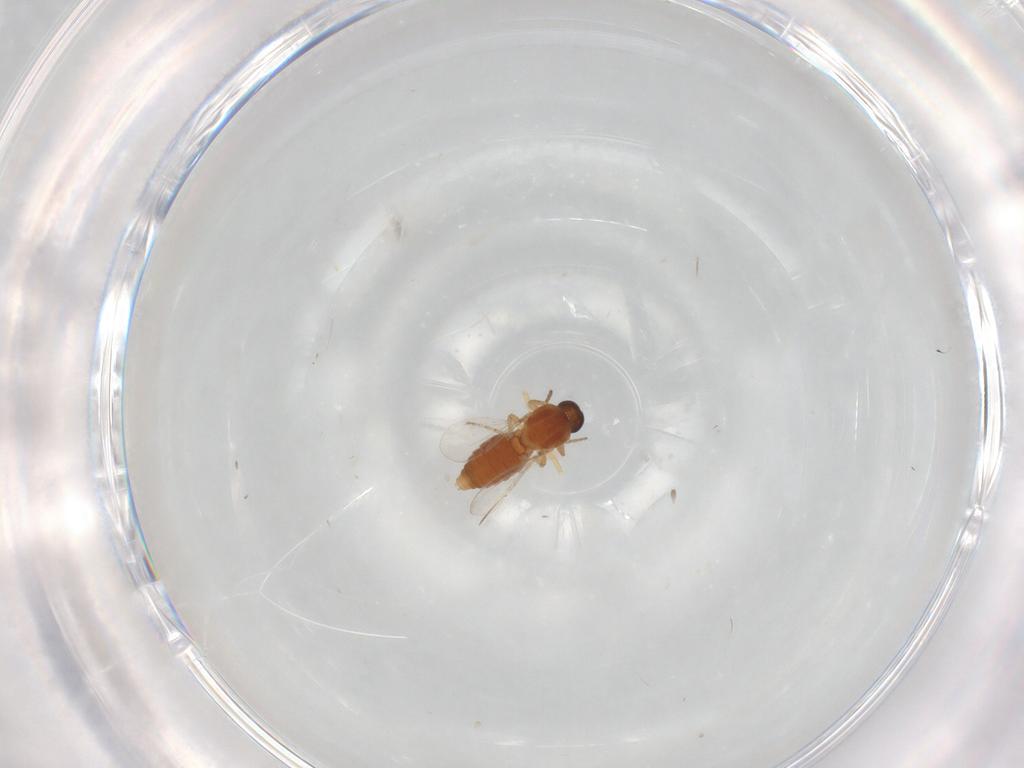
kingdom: Animalia
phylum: Arthropoda
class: Insecta
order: Diptera
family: Ceratopogonidae
